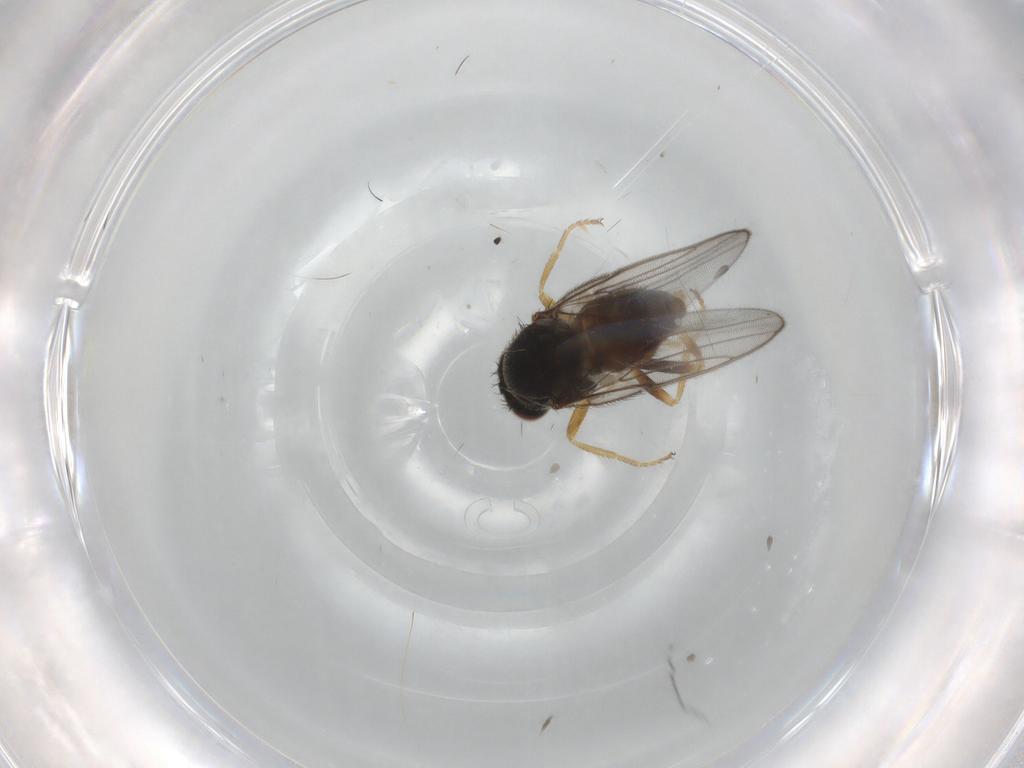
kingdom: Animalia
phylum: Arthropoda
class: Insecta
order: Diptera
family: Chloropidae
